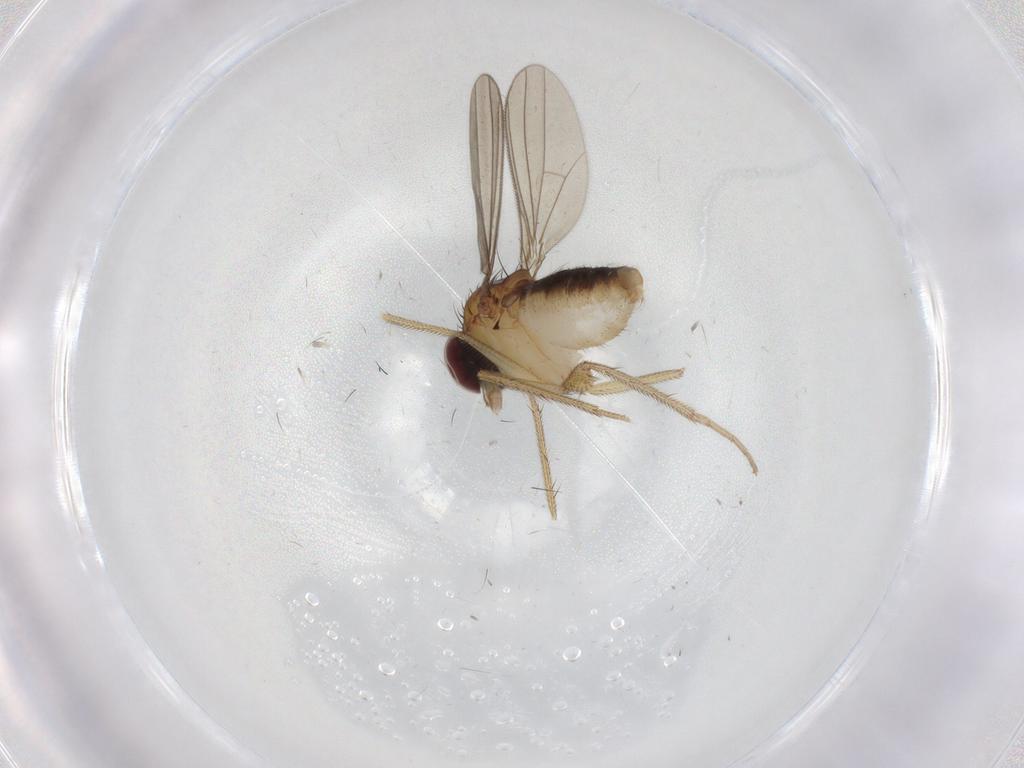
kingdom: Animalia
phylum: Arthropoda
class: Insecta
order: Diptera
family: Dolichopodidae
